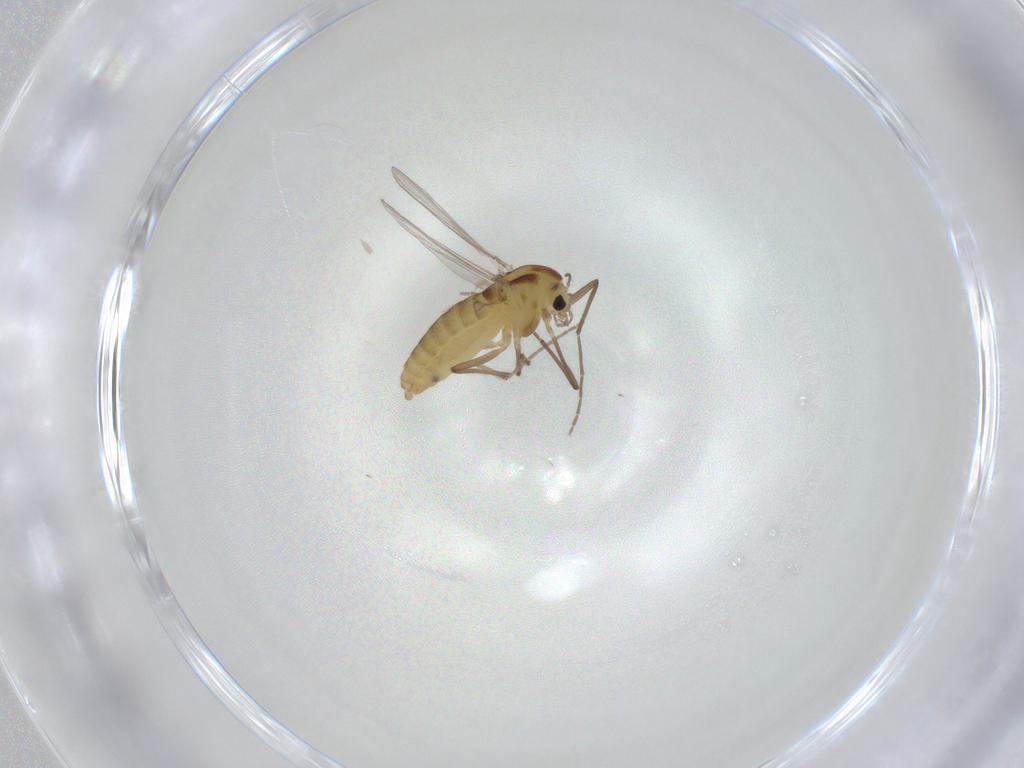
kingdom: Animalia
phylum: Arthropoda
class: Insecta
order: Diptera
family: Chironomidae
